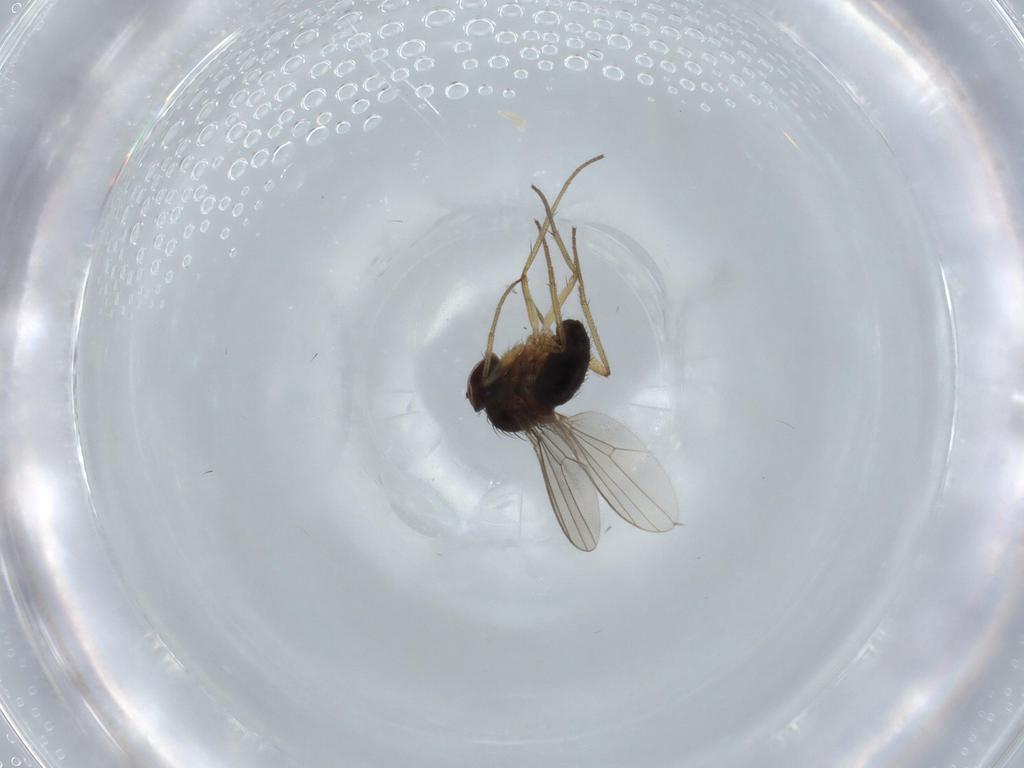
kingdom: Animalia
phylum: Arthropoda
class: Insecta
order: Diptera
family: Dolichopodidae
